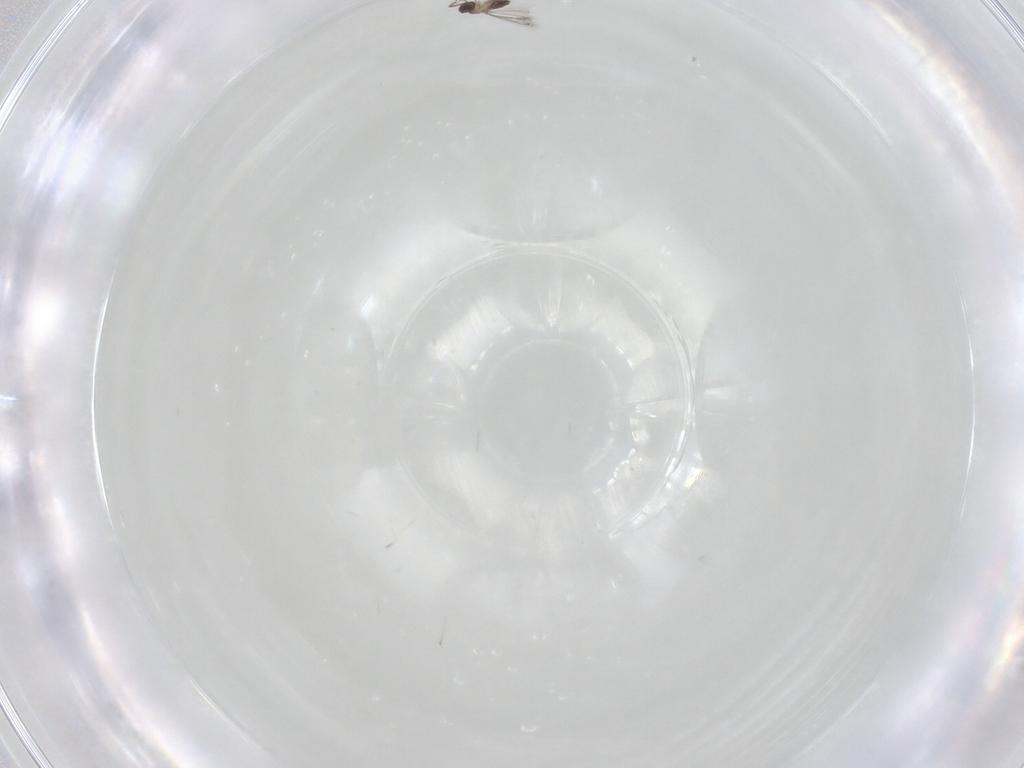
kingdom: Animalia
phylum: Arthropoda
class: Insecta
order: Hymenoptera
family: Mymaridae
